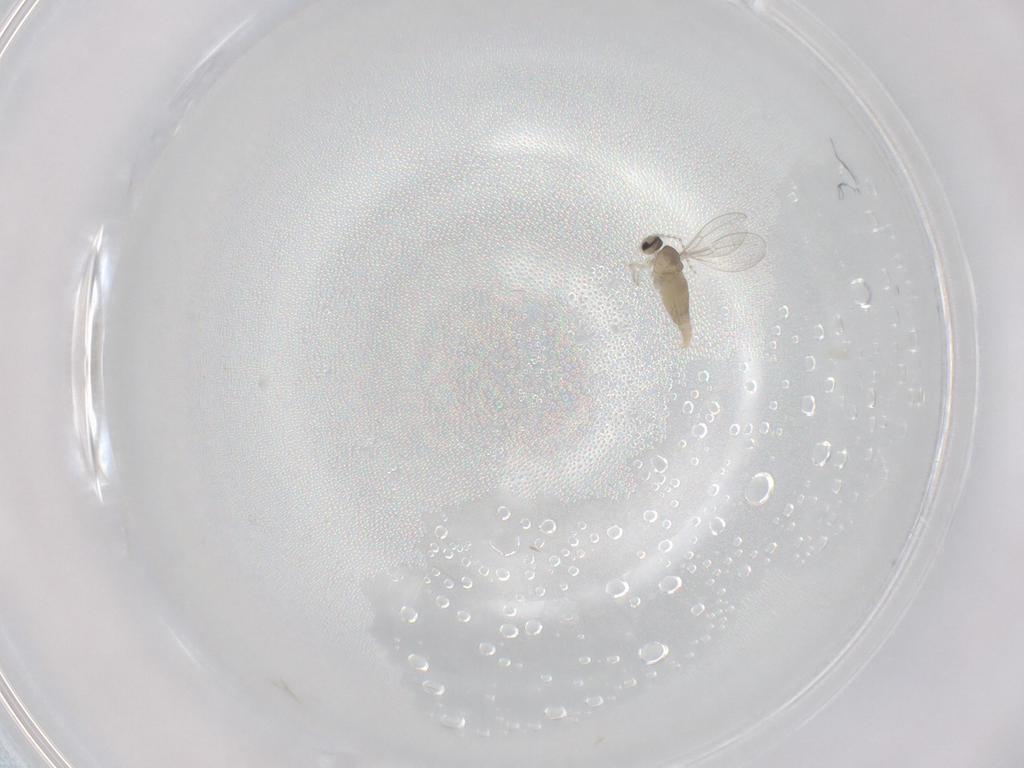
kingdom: Animalia
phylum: Arthropoda
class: Insecta
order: Diptera
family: Cecidomyiidae
